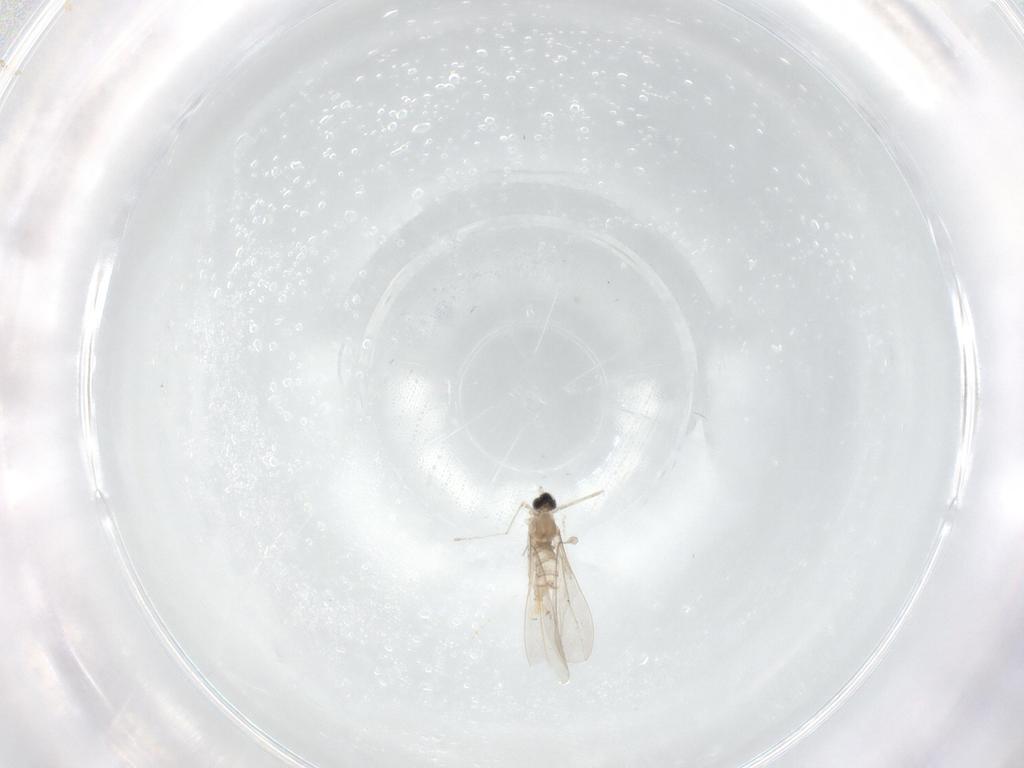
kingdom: Animalia
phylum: Arthropoda
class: Insecta
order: Diptera
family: Cecidomyiidae
